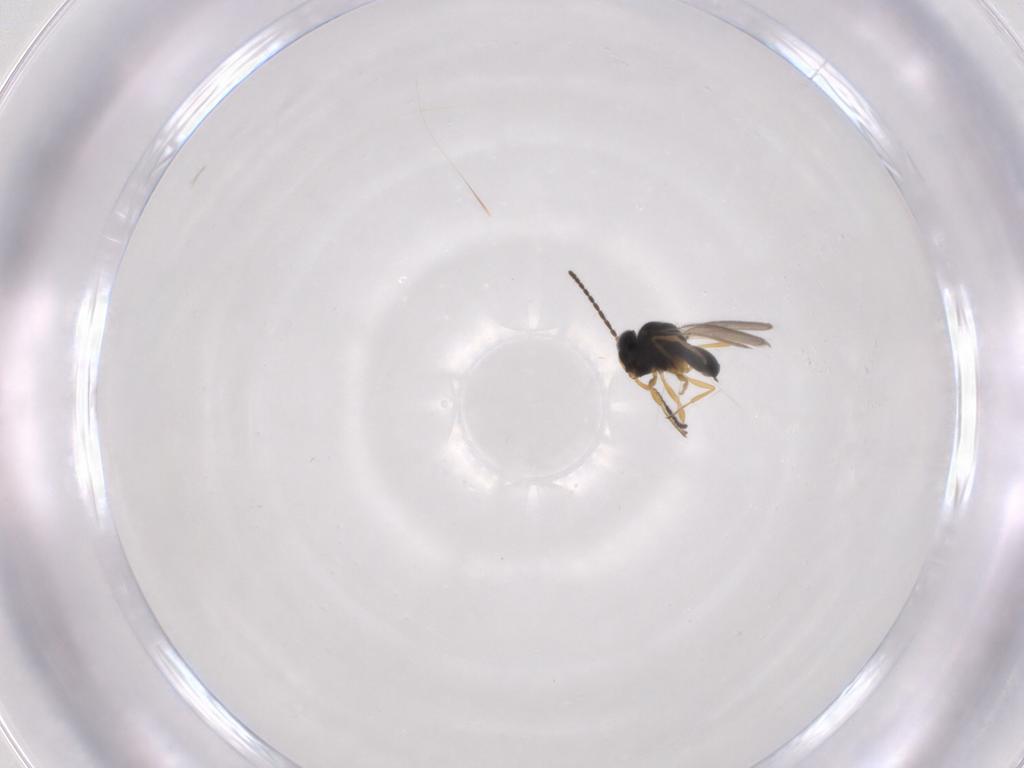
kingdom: Animalia
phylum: Arthropoda
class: Insecta
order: Hymenoptera
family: Scelionidae
